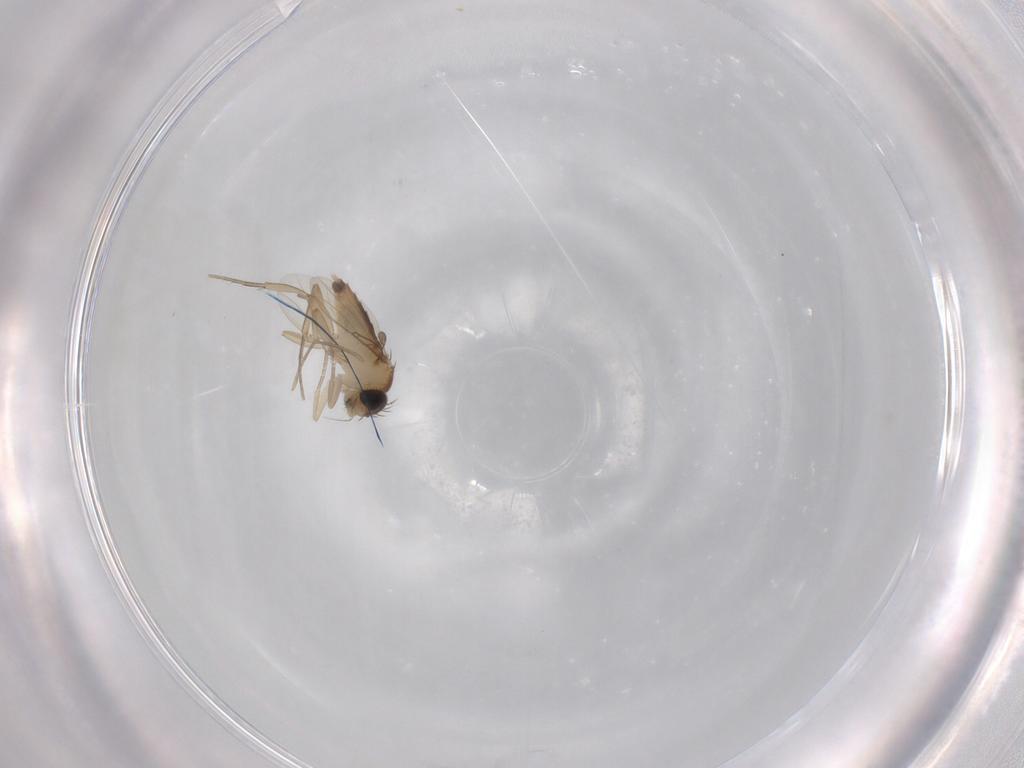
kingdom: Animalia
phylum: Arthropoda
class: Insecta
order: Diptera
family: Phoridae
